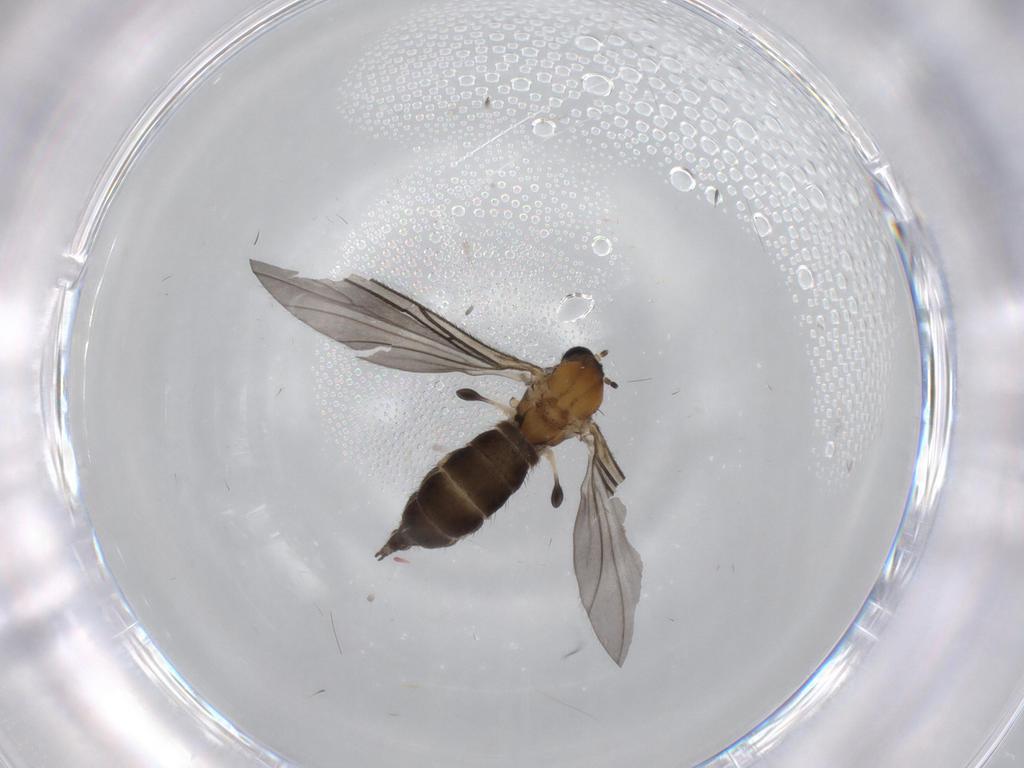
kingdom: Animalia
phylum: Arthropoda
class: Insecta
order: Diptera
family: Sciaridae
